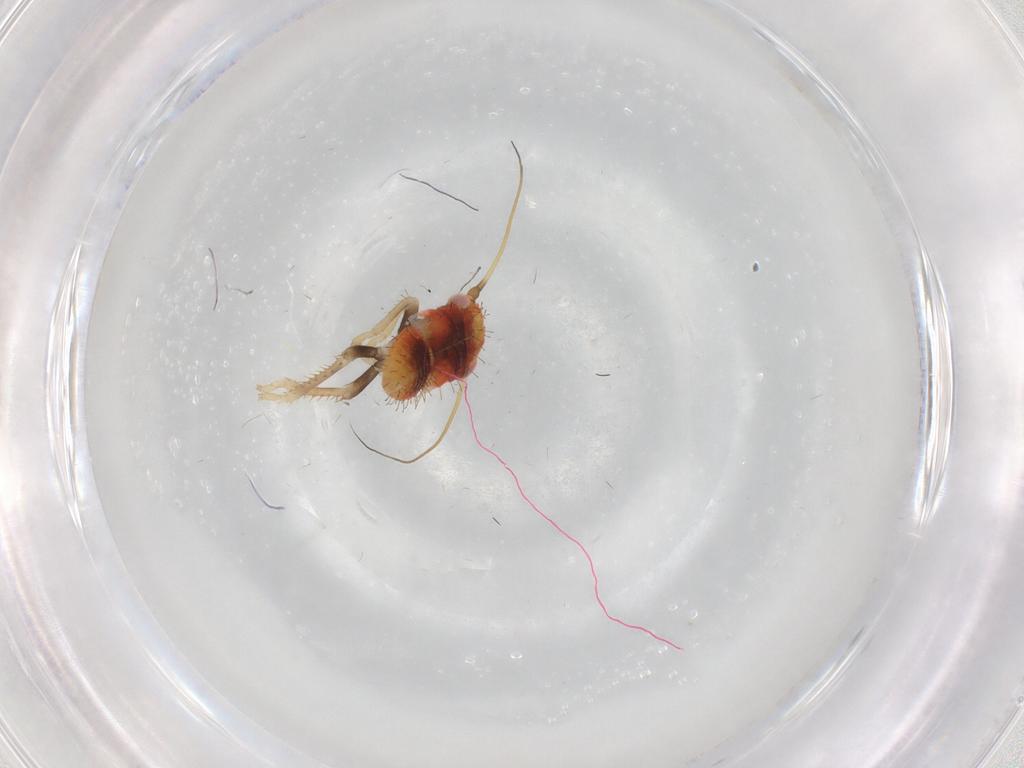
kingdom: Animalia
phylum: Arthropoda
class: Insecta
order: Hemiptera
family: Cicadellidae
